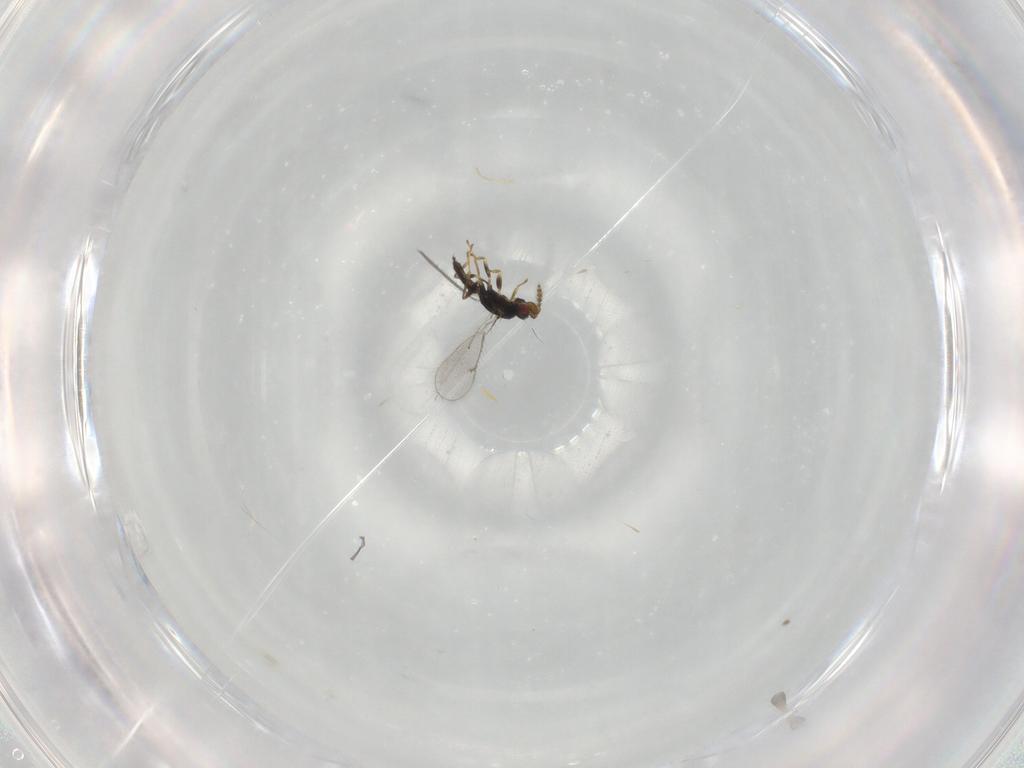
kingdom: Animalia
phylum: Arthropoda
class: Insecta
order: Hymenoptera
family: Eulophidae
